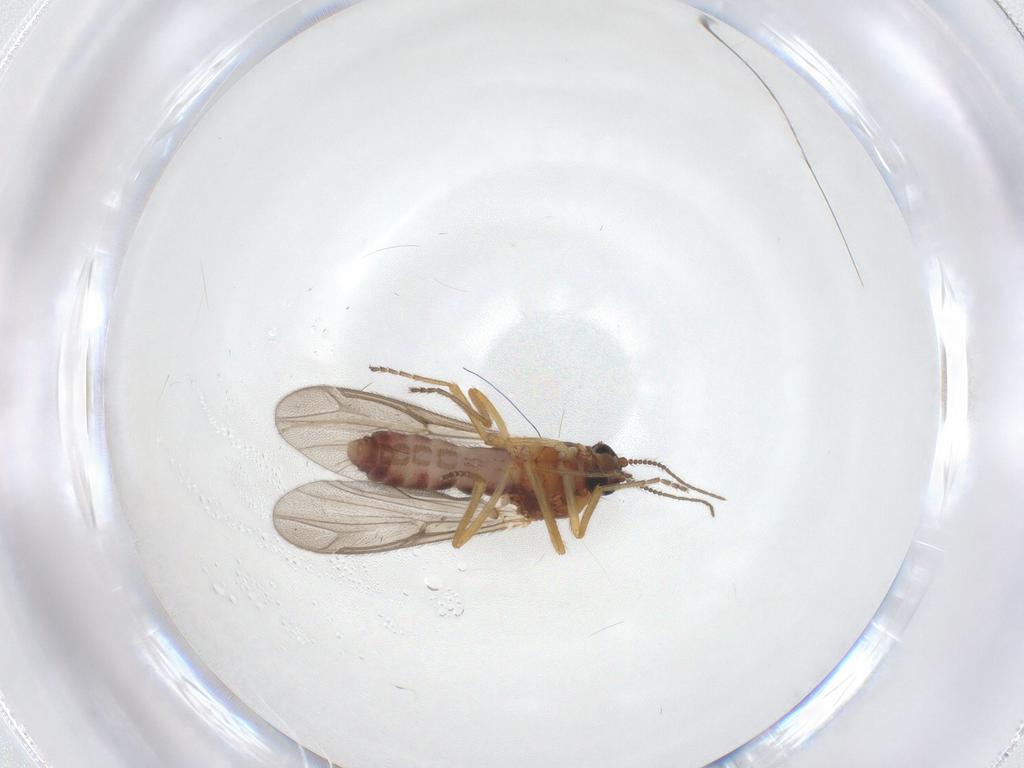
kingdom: Animalia
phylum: Arthropoda
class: Insecta
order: Diptera
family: Ceratopogonidae
